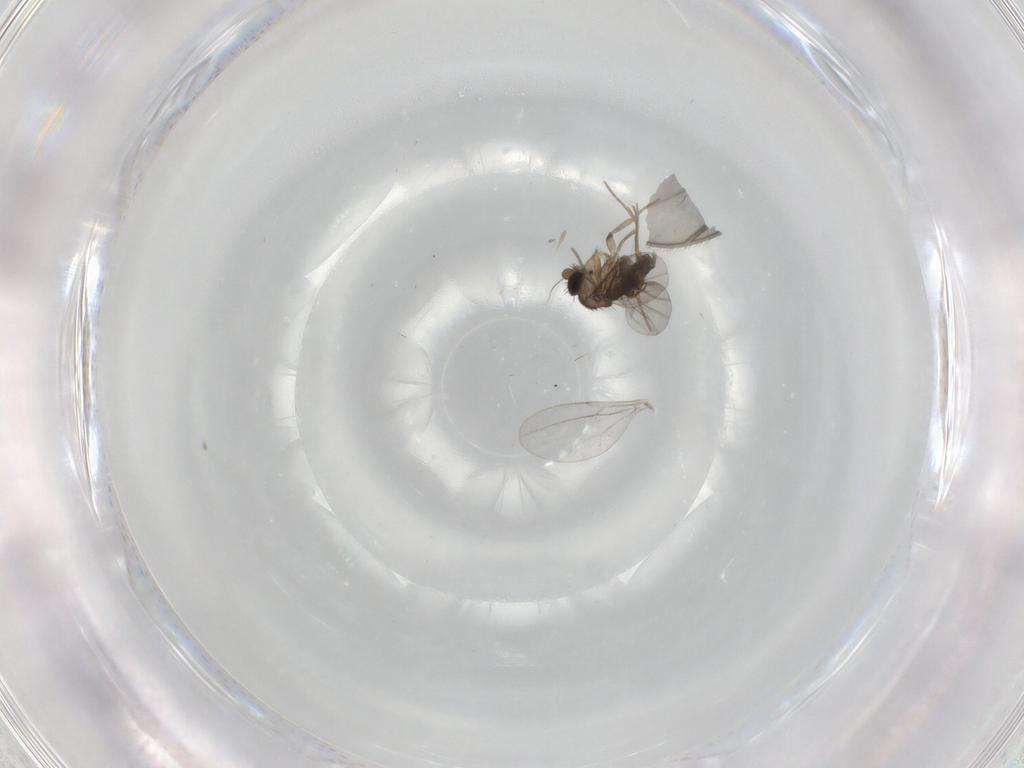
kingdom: Animalia
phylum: Arthropoda
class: Insecta
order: Diptera
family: Cecidomyiidae
